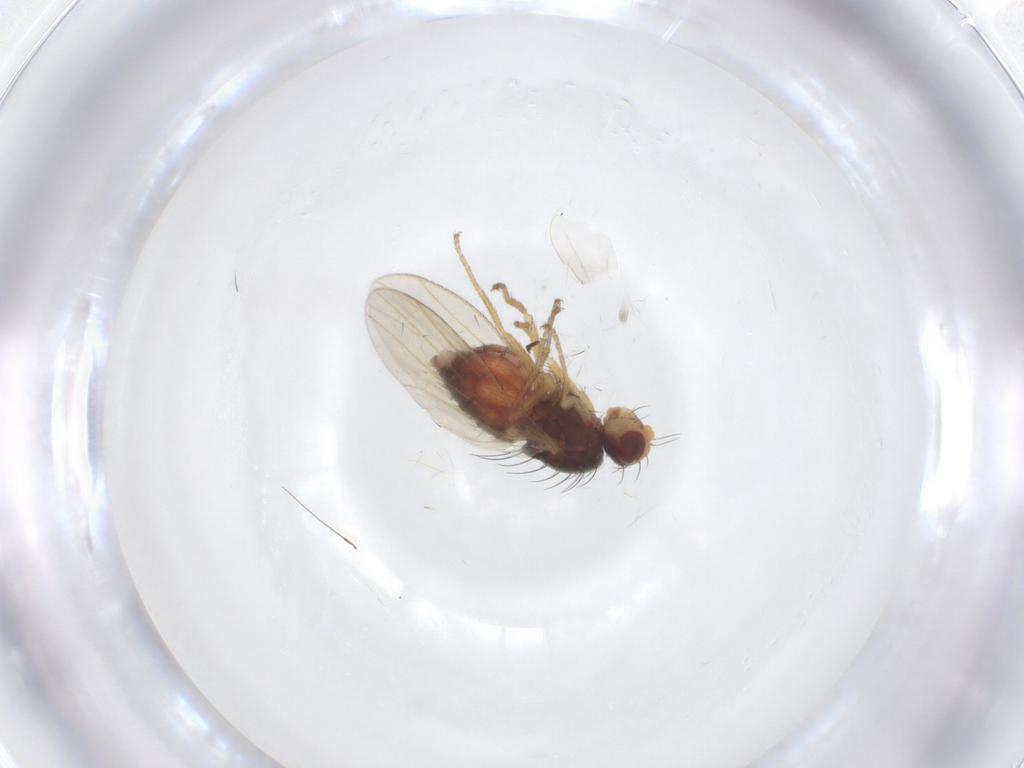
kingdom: Animalia
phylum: Arthropoda
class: Insecta
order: Diptera
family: Heleomyzidae
